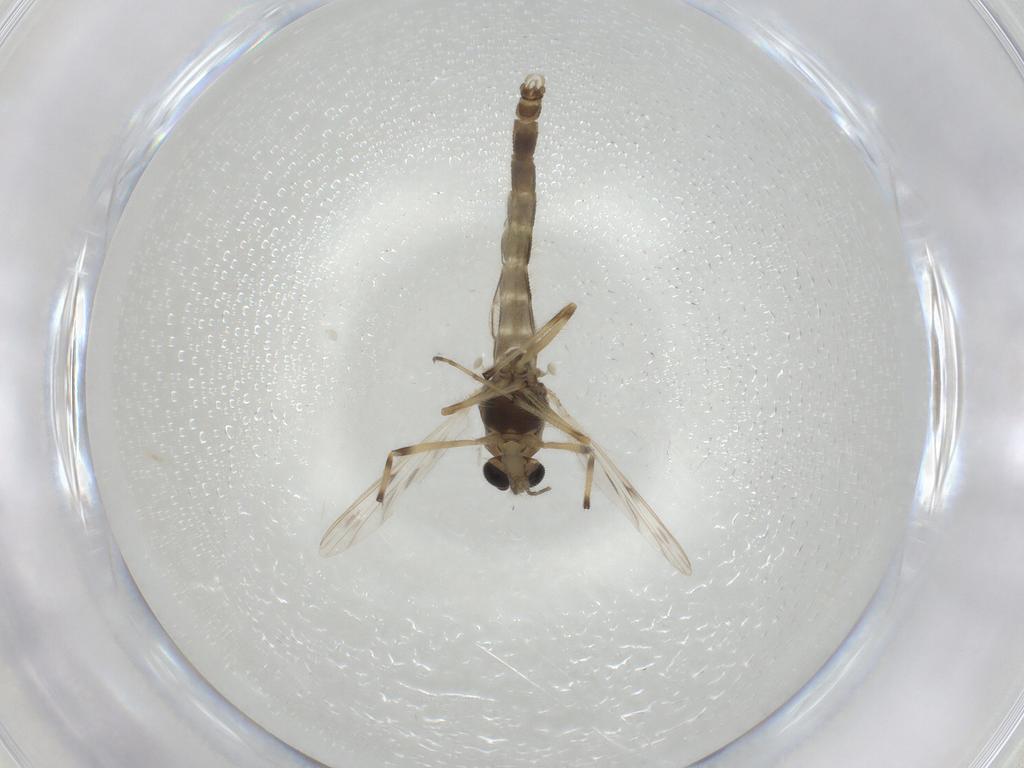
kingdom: Animalia
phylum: Arthropoda
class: Insecta
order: Diptera
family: Chironomidae
